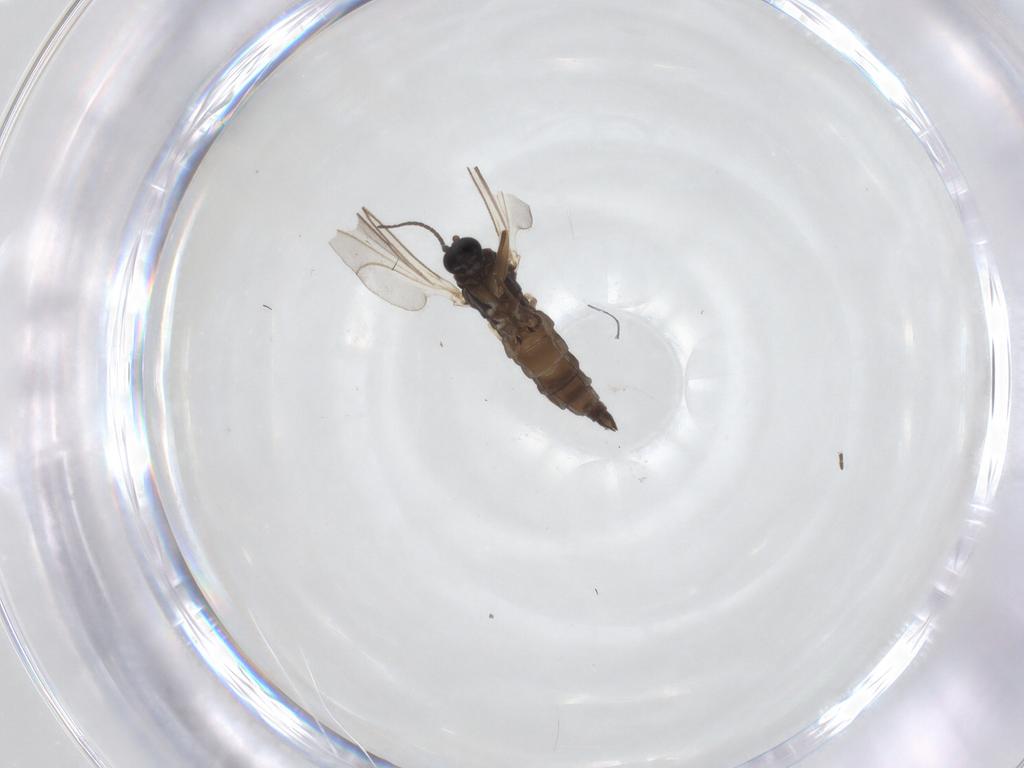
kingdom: Animalia
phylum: Arthropoda
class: Insecta
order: Diptera
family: Sciaridae
